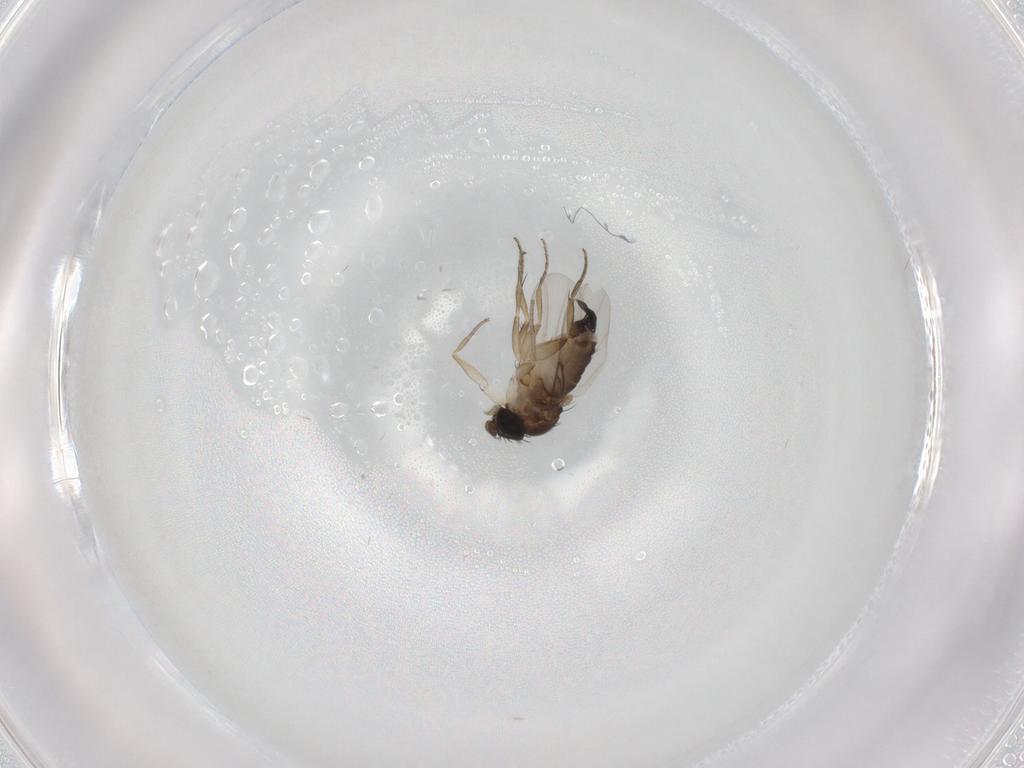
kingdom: Animalia
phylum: Arthropoda
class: Insecta
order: Diptera
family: Phoridae
